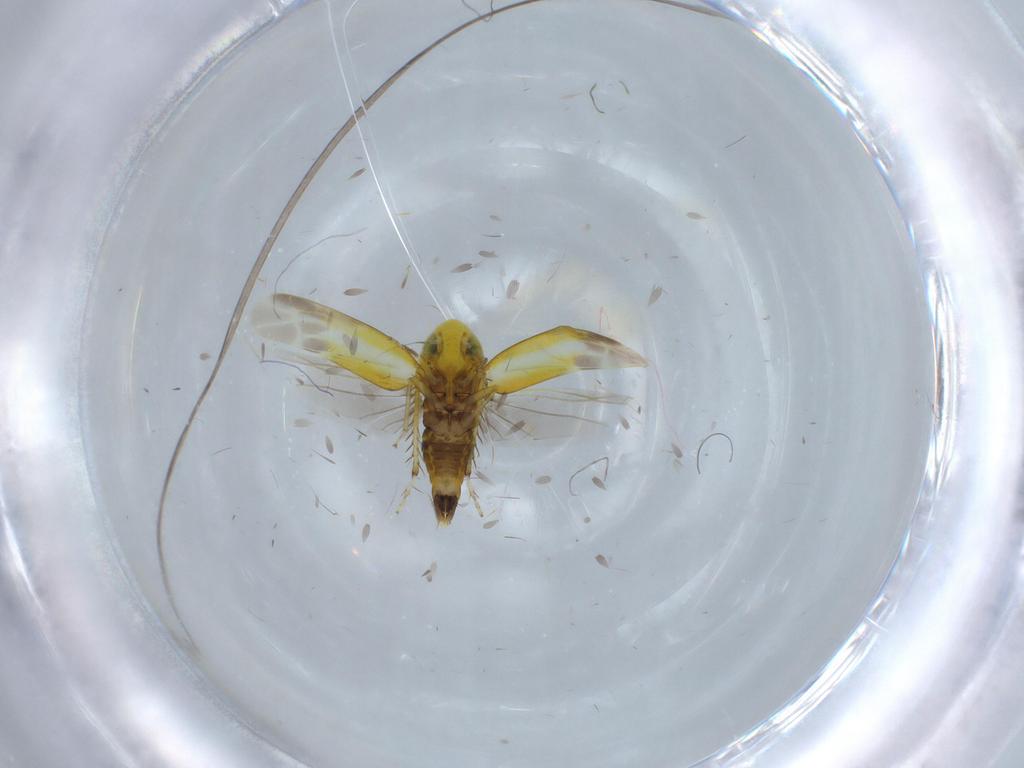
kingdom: Animalia
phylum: Arthropoda
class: Insecta
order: Hemiptera
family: Cicadellidae
